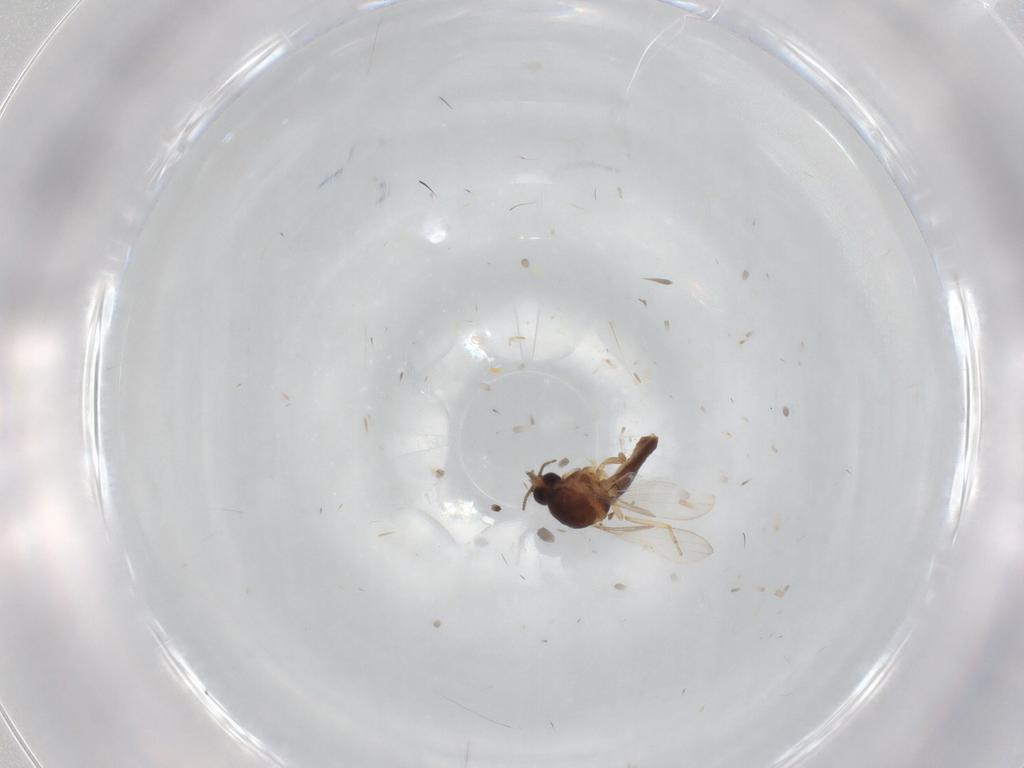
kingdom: Animalia
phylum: Arthropoda
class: Insecta
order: Diptera
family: Ceratopogonidae
